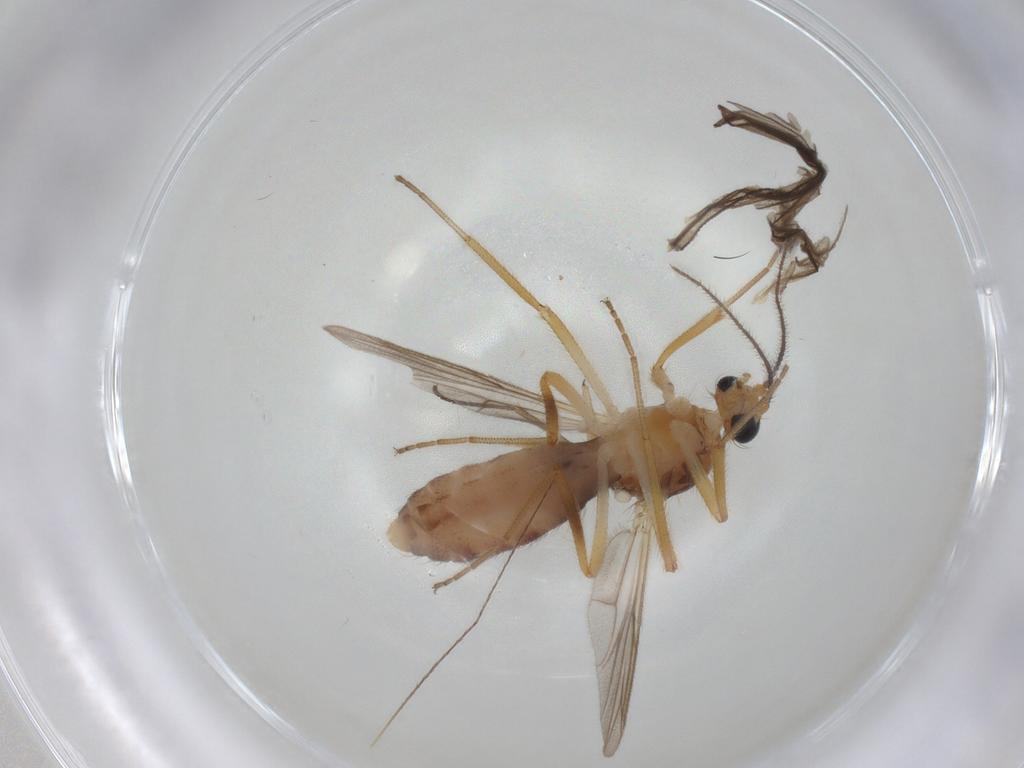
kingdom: Animalia
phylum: Arthropoda
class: Insecta
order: Diptera
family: Ceratopogonidae
